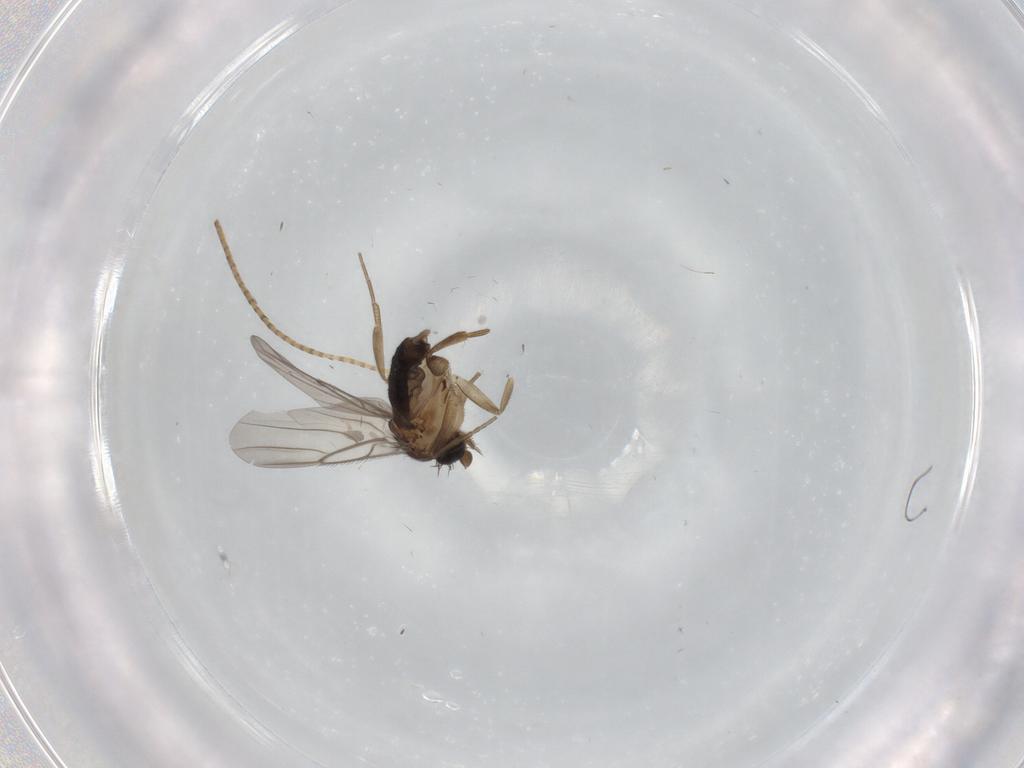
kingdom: Animalia
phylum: Arthropoda
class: Insecta
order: Diptera
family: Phoridae
